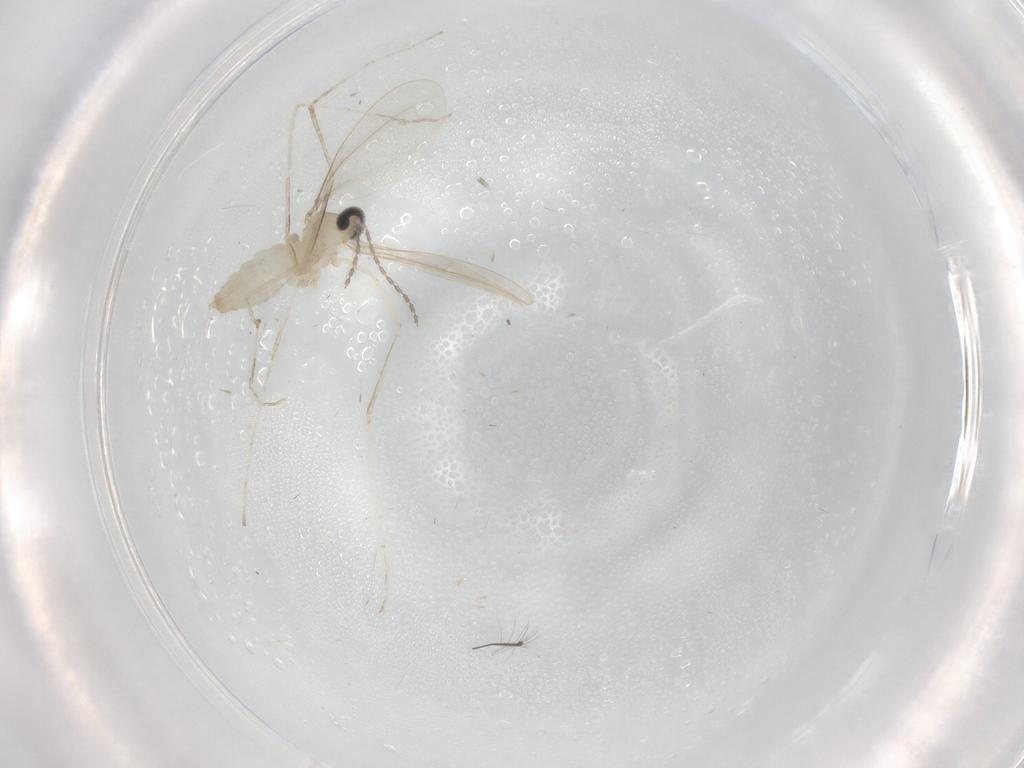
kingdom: Animalia
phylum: Arthropoda
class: Insecta
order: Diptera
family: Chironomidae
